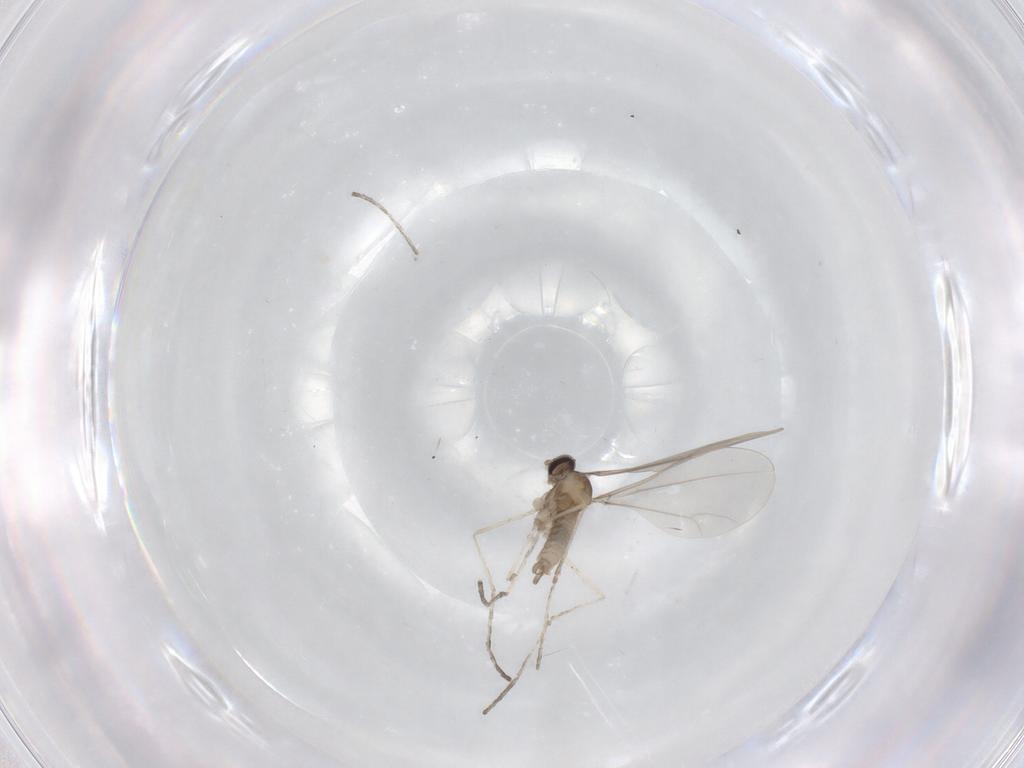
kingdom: Animalia
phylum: Arthropoda
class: Insecta
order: Diptera
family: Cecidomyiidae
